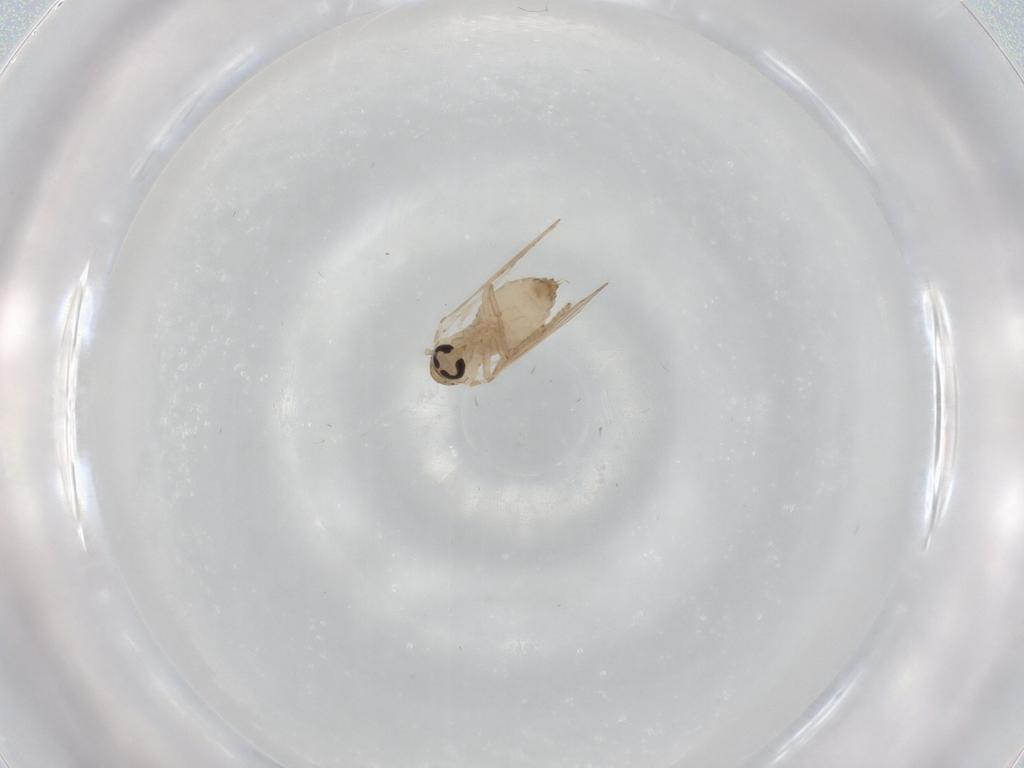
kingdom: Animalia
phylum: Arthropoda
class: Insecta
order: Diptera
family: Psychodidae
